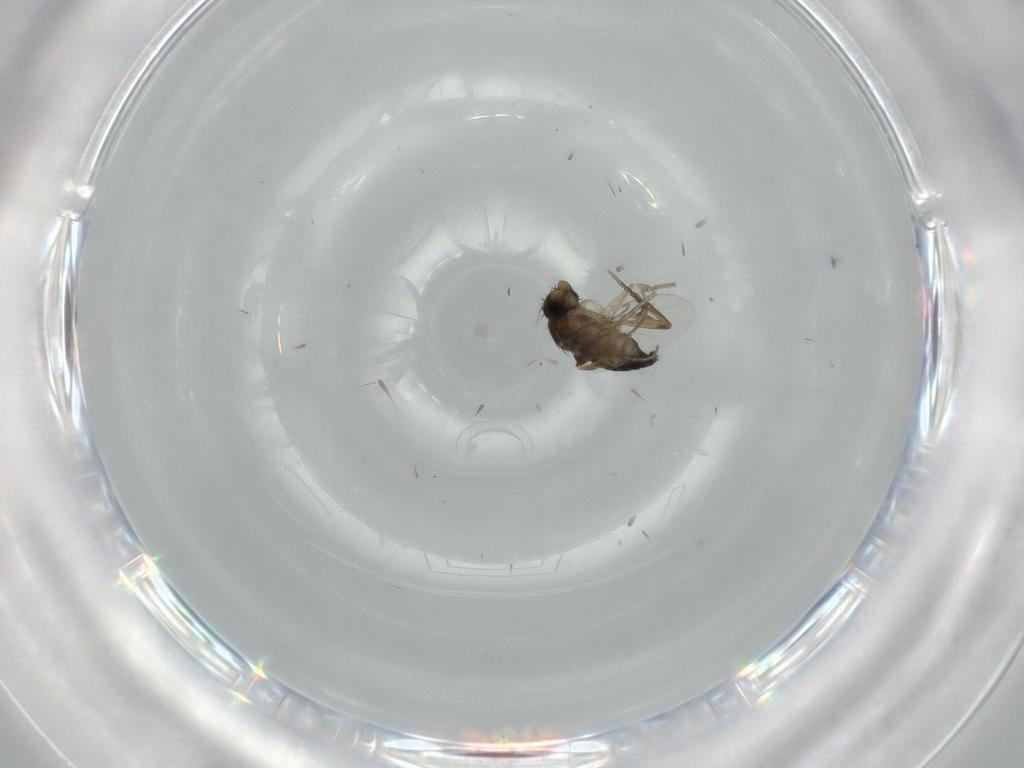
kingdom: Animalia
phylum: Arthropoda
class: Insecta
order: Diptera
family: Phoridae
